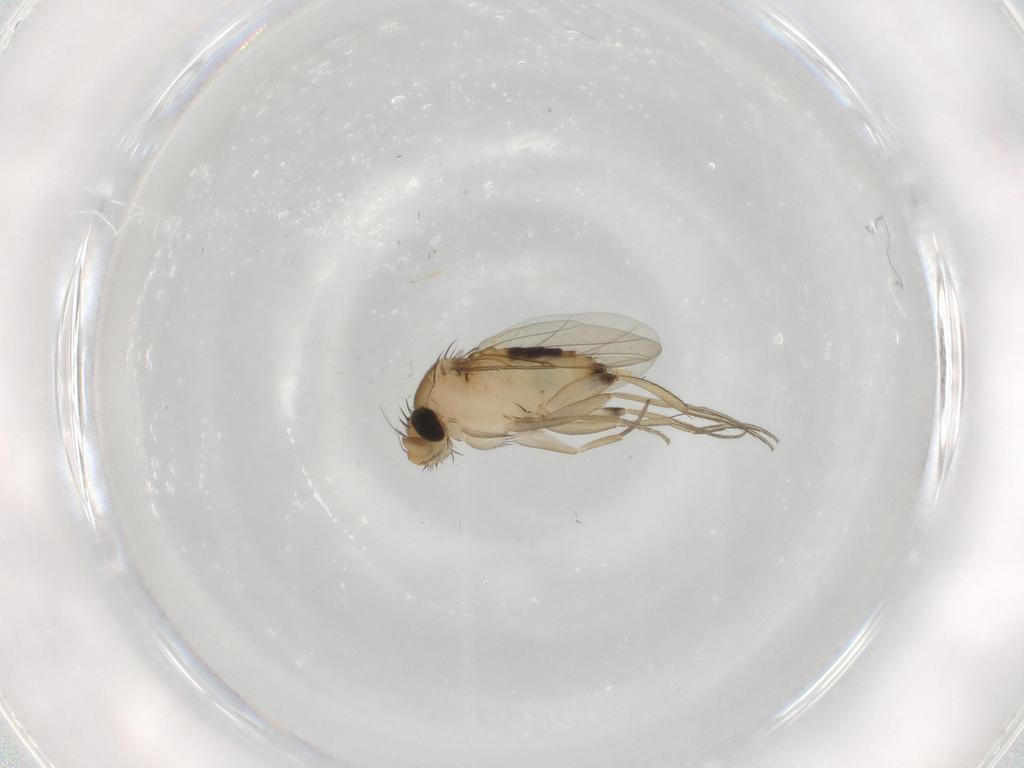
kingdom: Animalia
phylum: Arthropoda
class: Insecta
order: Diptera
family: Phoridae
